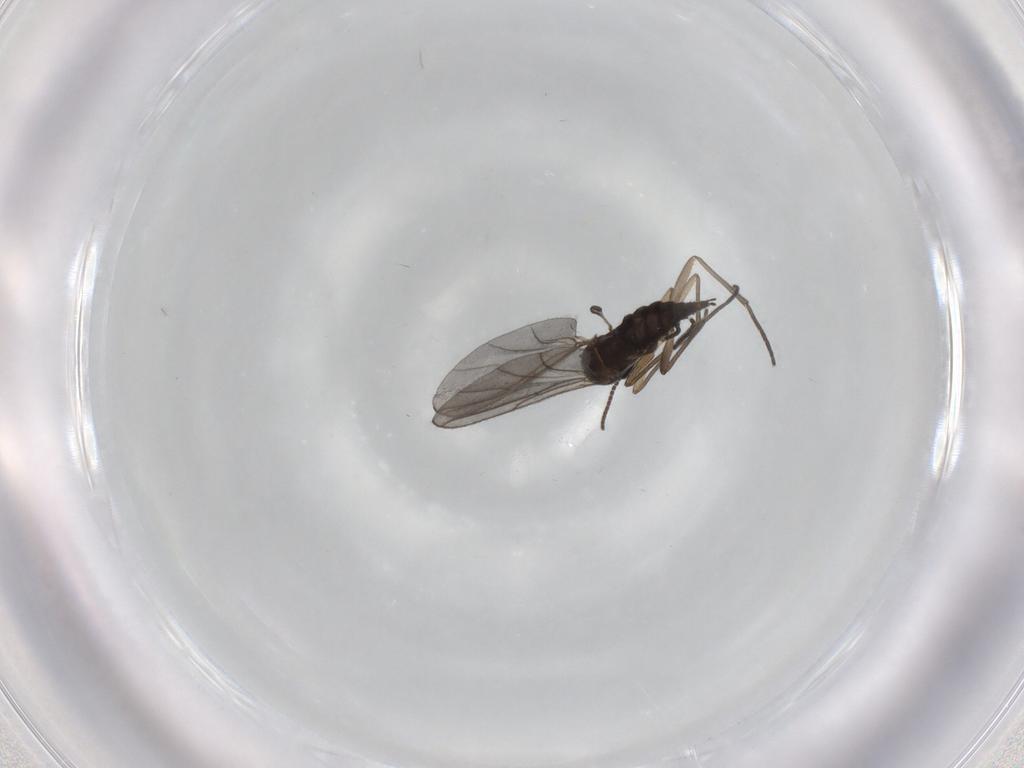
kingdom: Animalia
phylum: Arthropoda
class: Insecta
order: Diptera
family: Sciaridae
